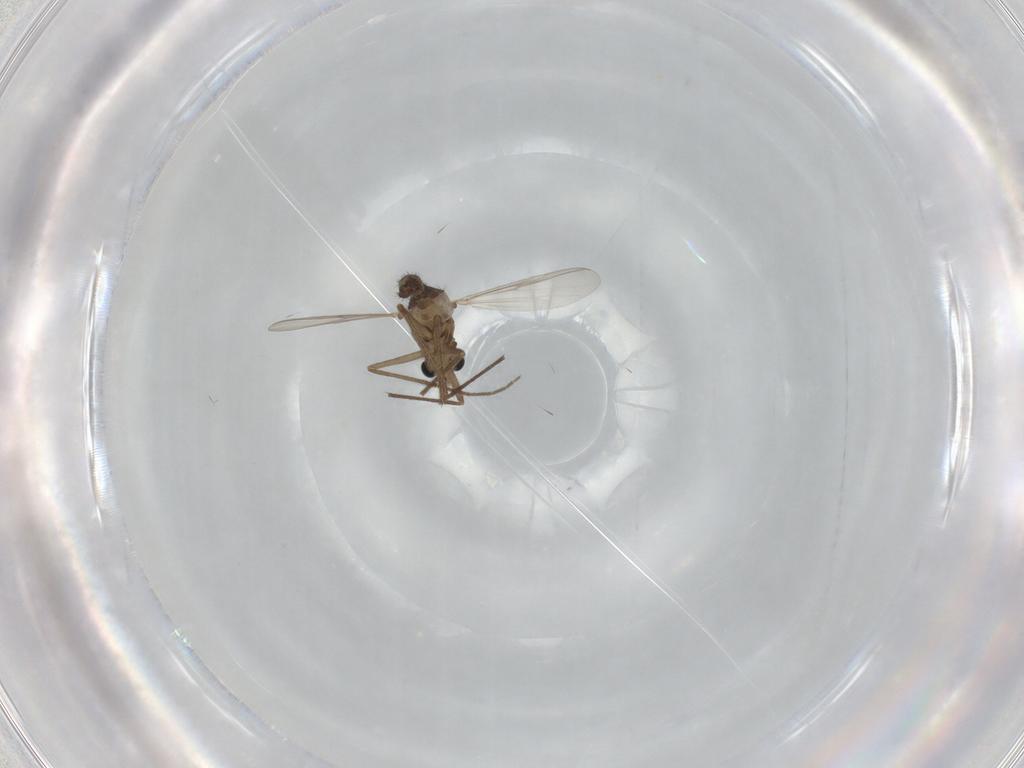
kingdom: Animalia
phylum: Arthropoda
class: Insecta
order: Diptera
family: Chironomidae
